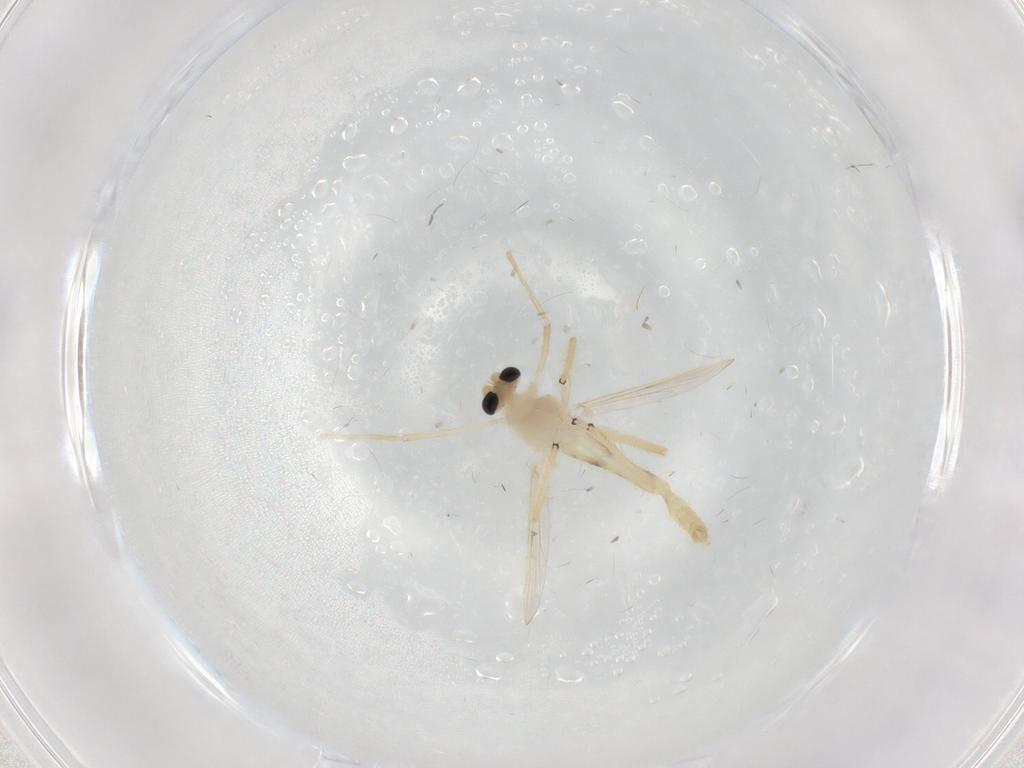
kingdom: Animalia
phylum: Arthropoda
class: Insecta
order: Diptera
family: Chironomidae
